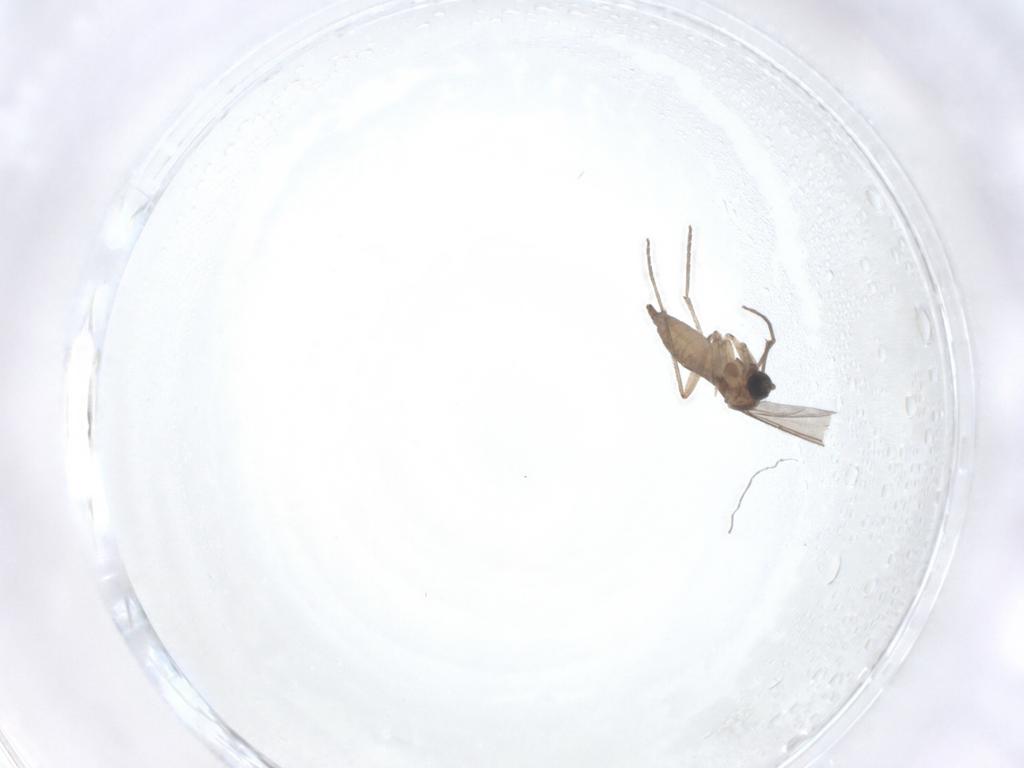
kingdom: Animalia
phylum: Arthropoda
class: Insecta
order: Diptera
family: Sciaridae
